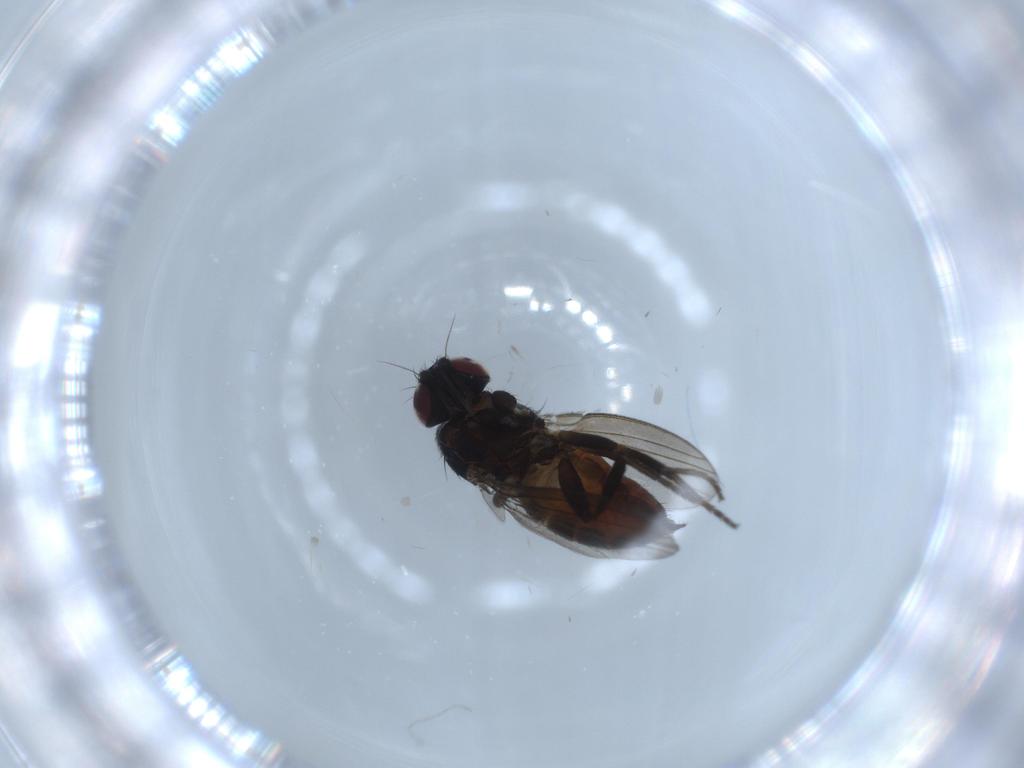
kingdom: Animalia
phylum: Arthropoda
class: Insecta
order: Diptera
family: Milichiidae
